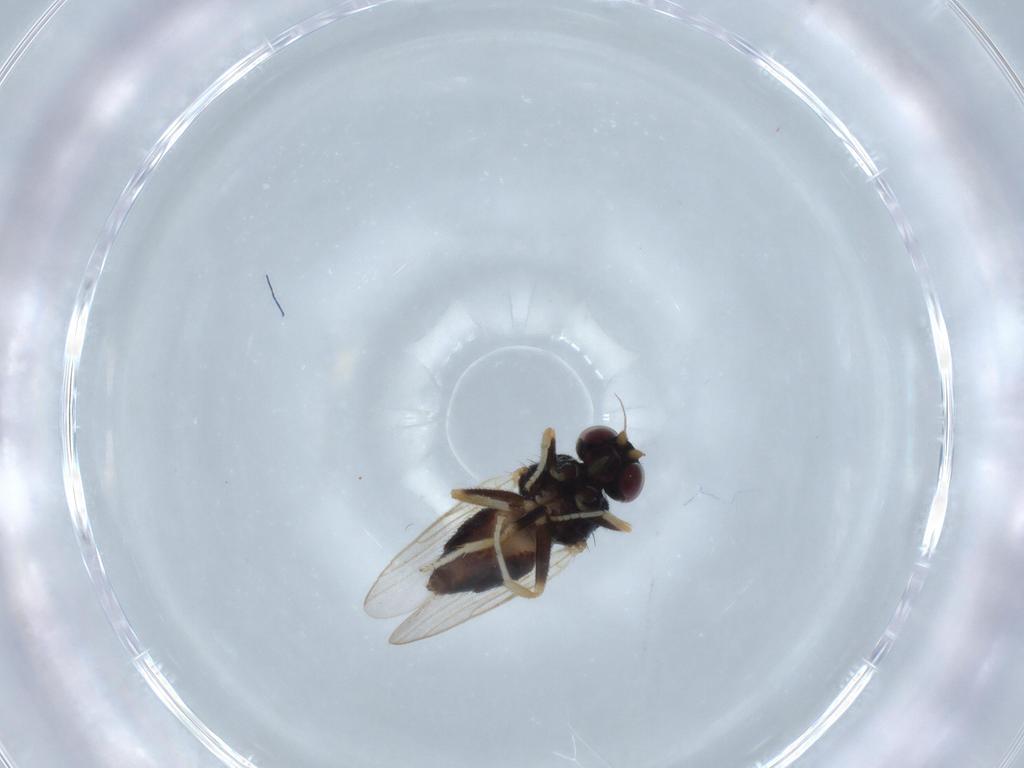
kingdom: Animalia
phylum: Arthropoda
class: Insecta
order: Diptera
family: Chloropidae
